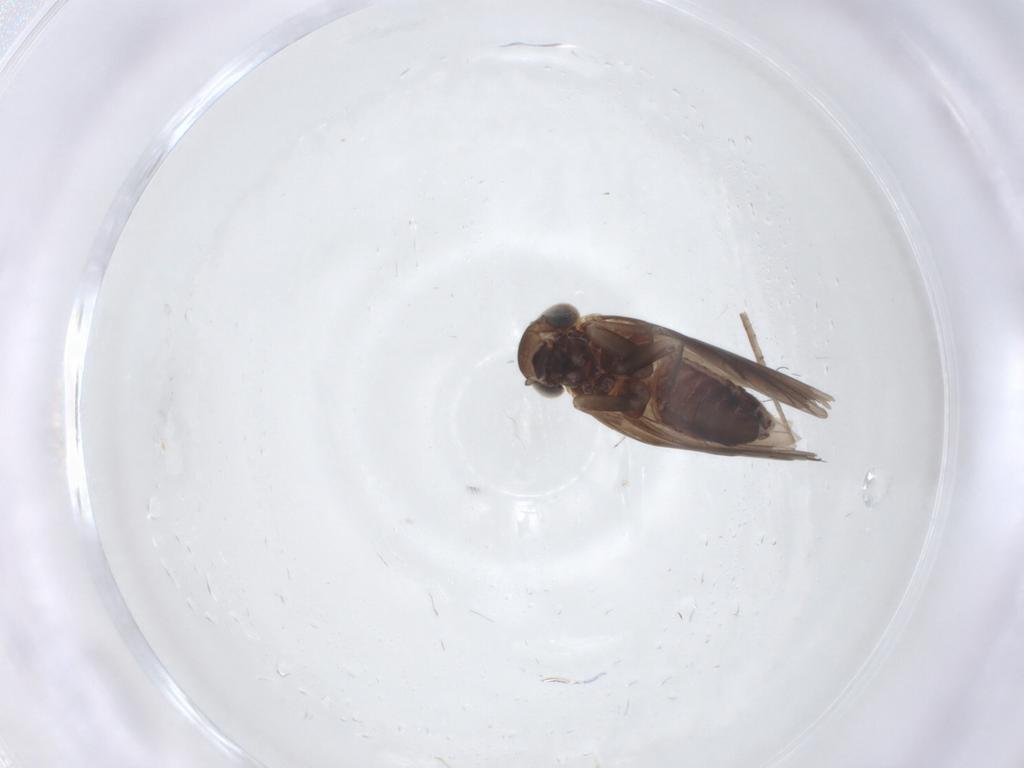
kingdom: Animalia
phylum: Arthropoda
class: Insecta
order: Psocodea
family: Amphientomidae
